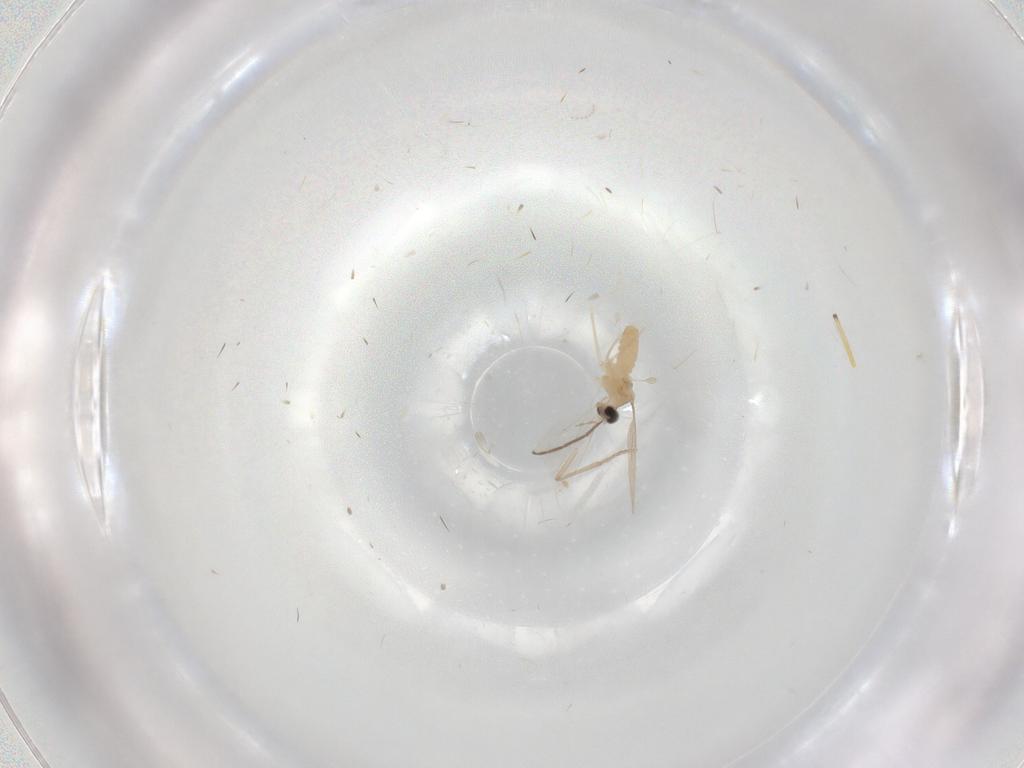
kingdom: Animalia
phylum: Arthropoda
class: Insecta
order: Diptera
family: Cecidomyiidae
